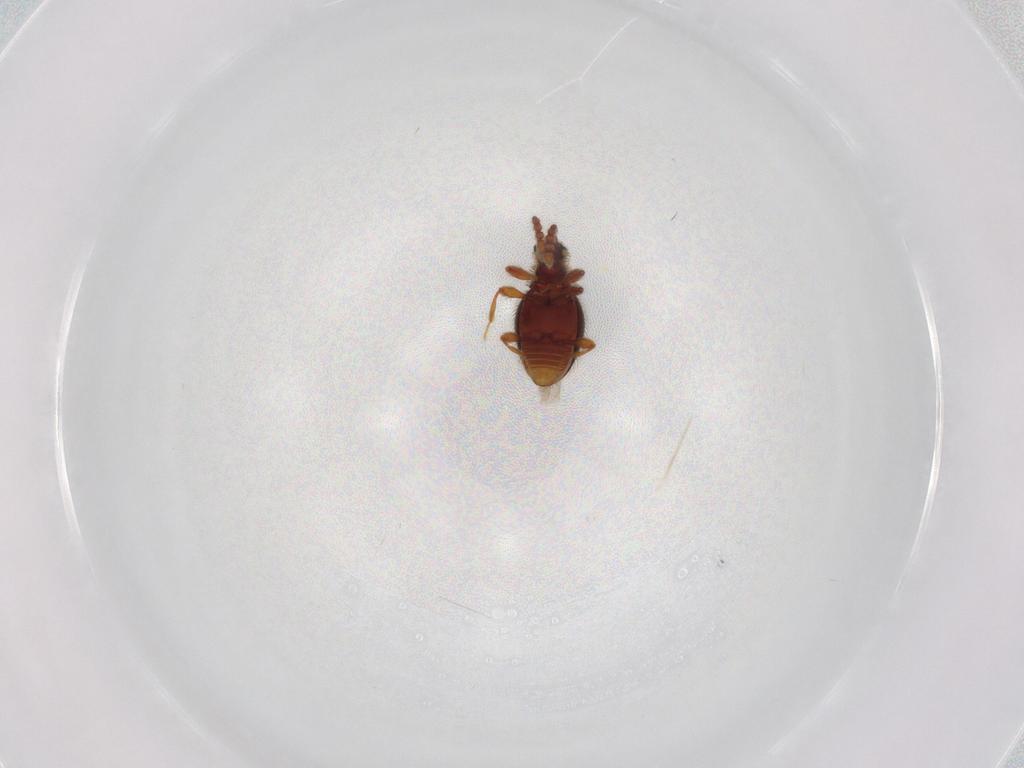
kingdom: Animalia
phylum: Arthropoda
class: Insecta
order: Coleoptera
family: Staphylinidae
